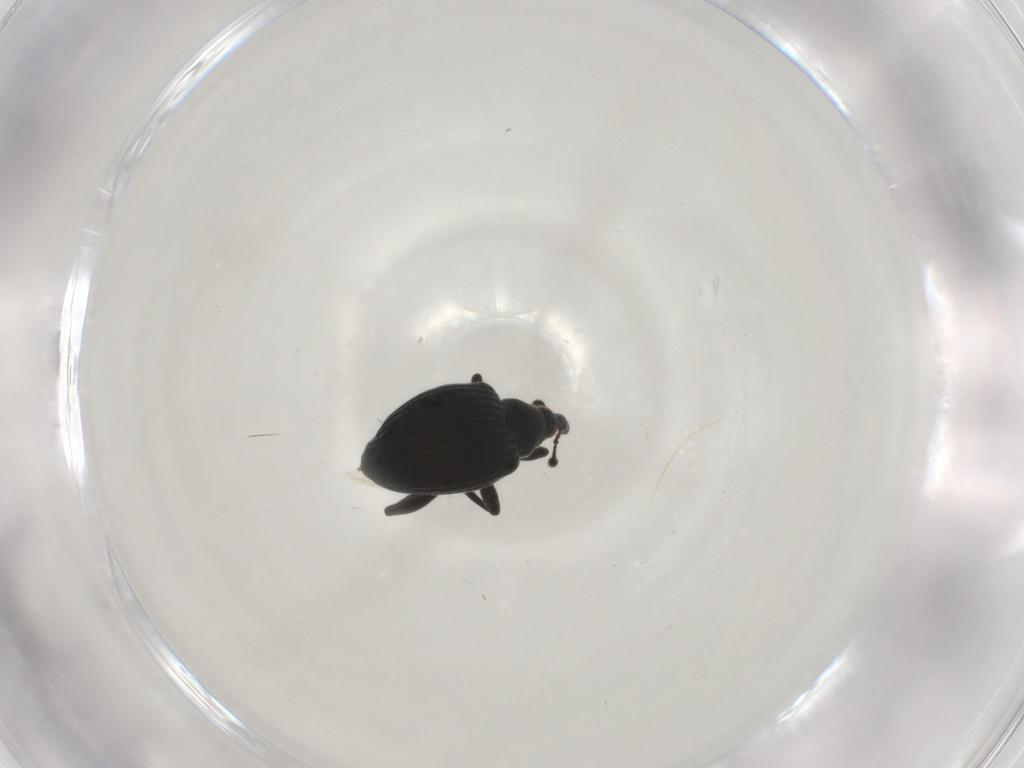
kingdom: Animalia
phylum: Arthropoda
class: Insecta
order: Coleoptera
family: Brentidae
